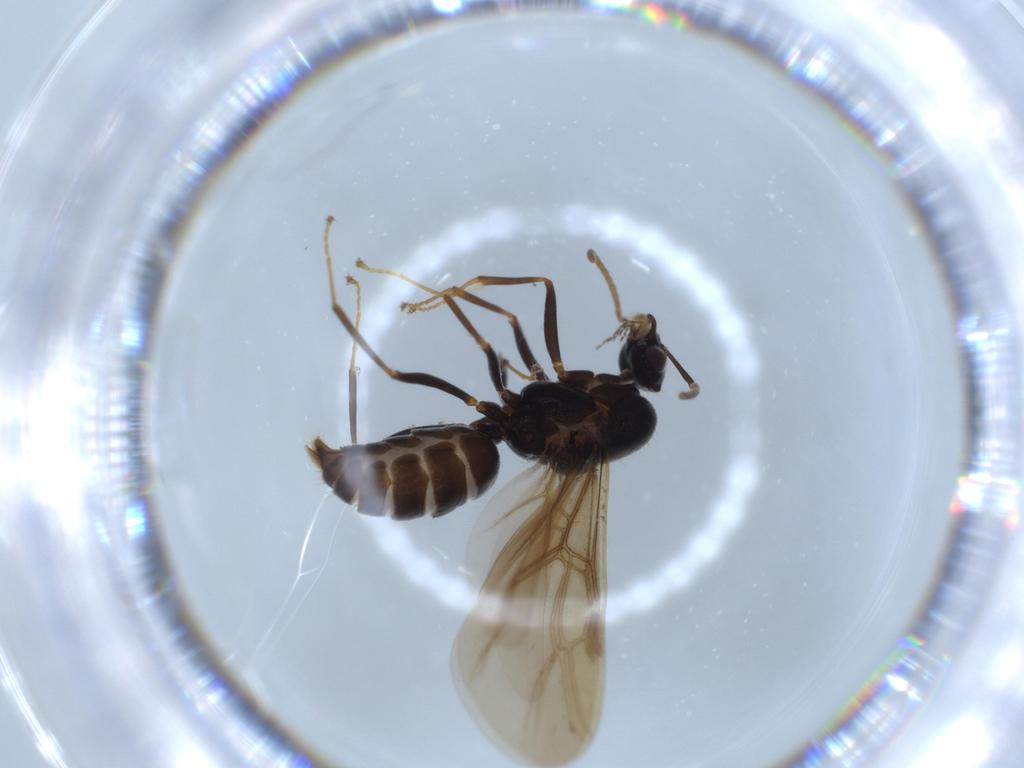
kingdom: Animalia
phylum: Arthropoda
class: Insecta
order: Hymenoptera
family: Formicidae
